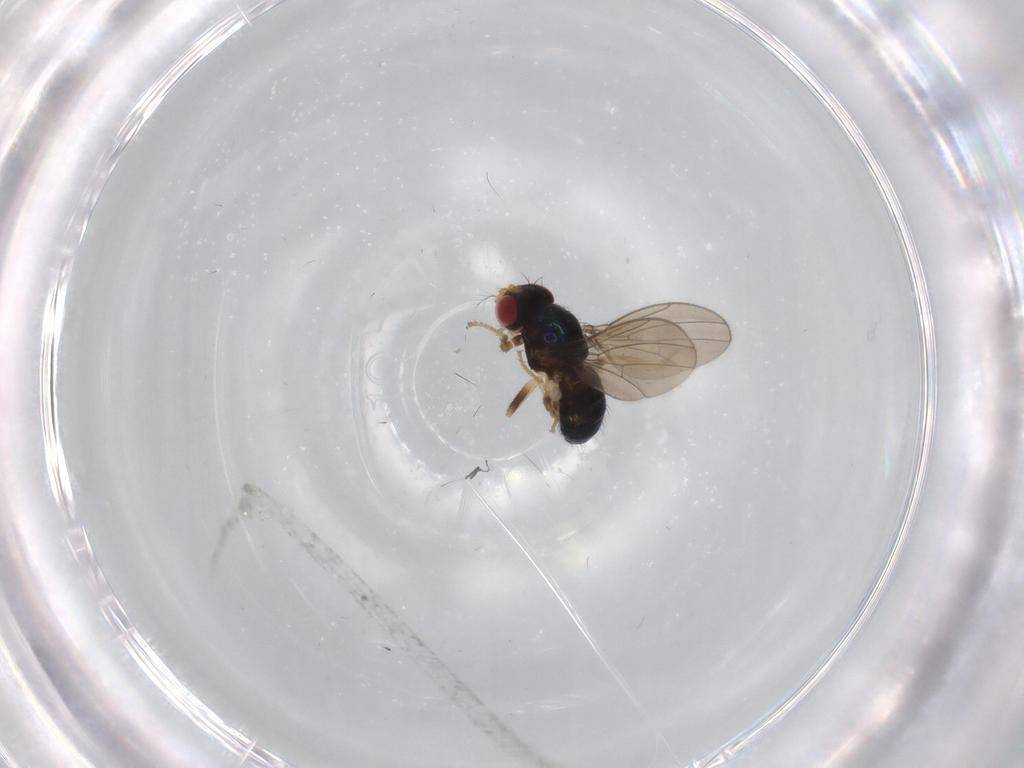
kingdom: Animalia
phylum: Arthropoda
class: Insecta
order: Diptera
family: Drosophilidae
